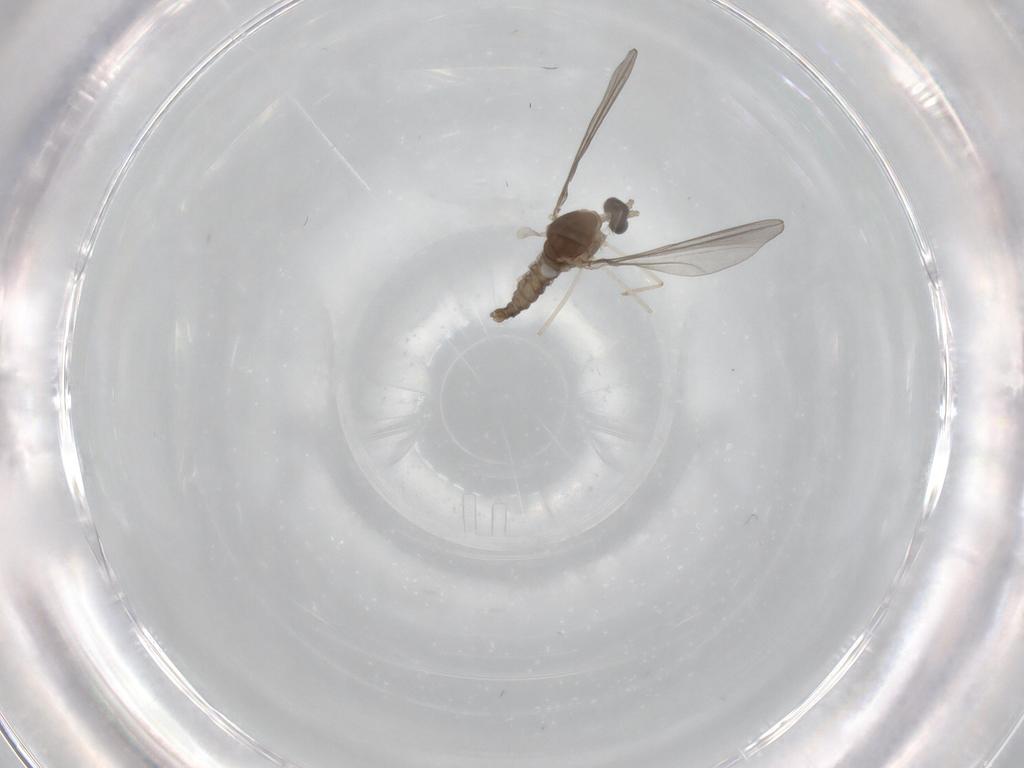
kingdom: Animalia
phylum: Arthropoda
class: Insecta
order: Diptera
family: Cecidomyiidae
